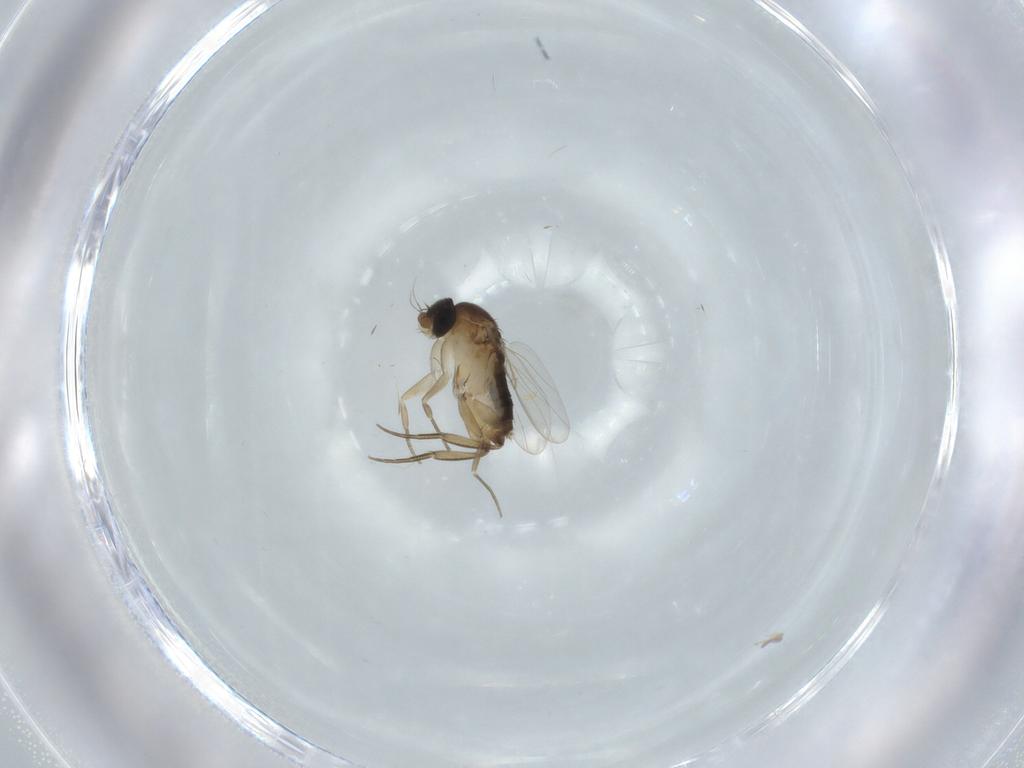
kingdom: Animalia
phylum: Arthropoda
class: Insecta
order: Diptera
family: Phoridae
